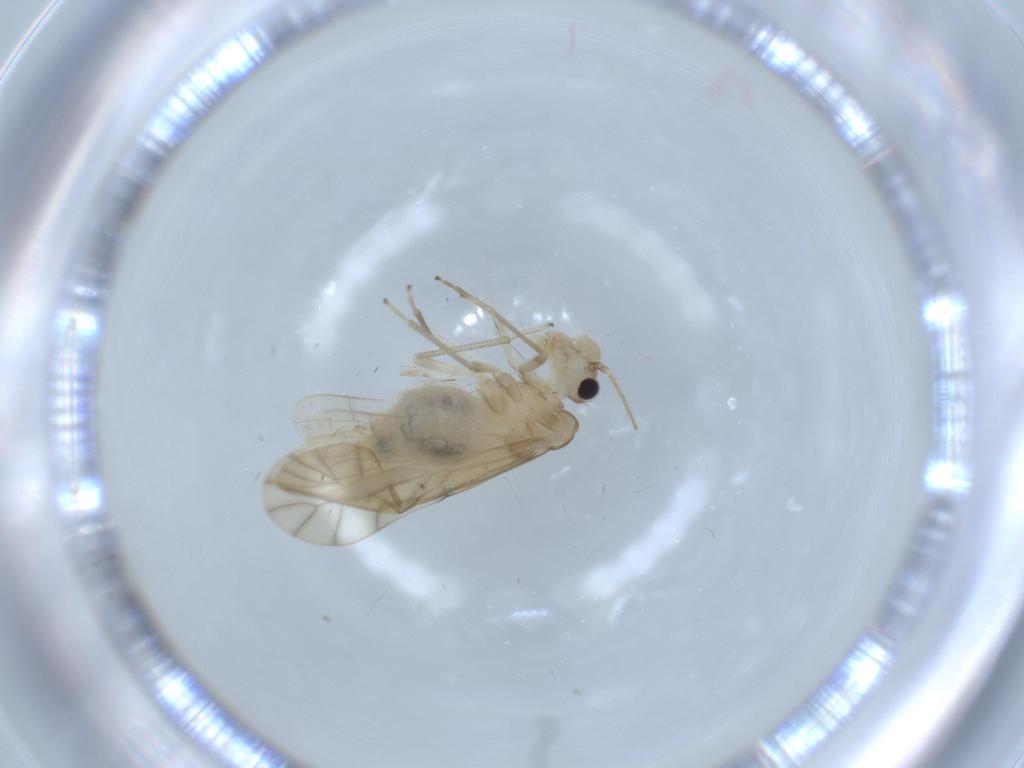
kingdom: Animalia
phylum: Arthropoda
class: Insecta
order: Psocodea
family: Caeciliusidae
